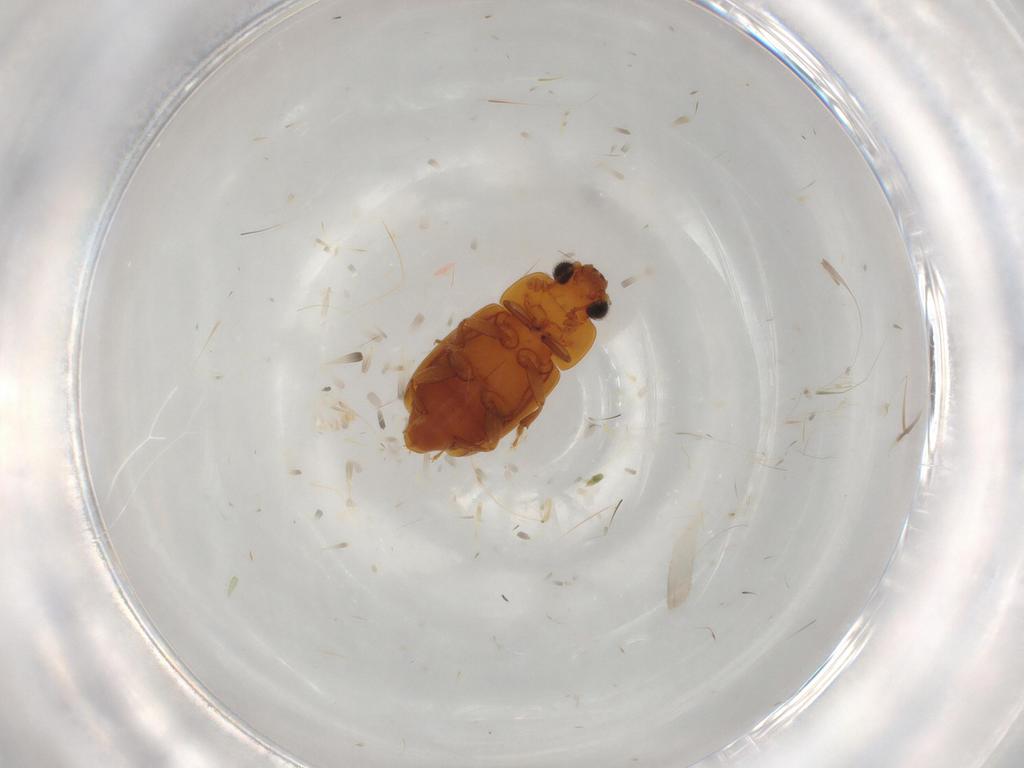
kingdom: Animalia
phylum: Arthropoda
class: Insecta
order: Coleoptera
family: Nitidulidae
